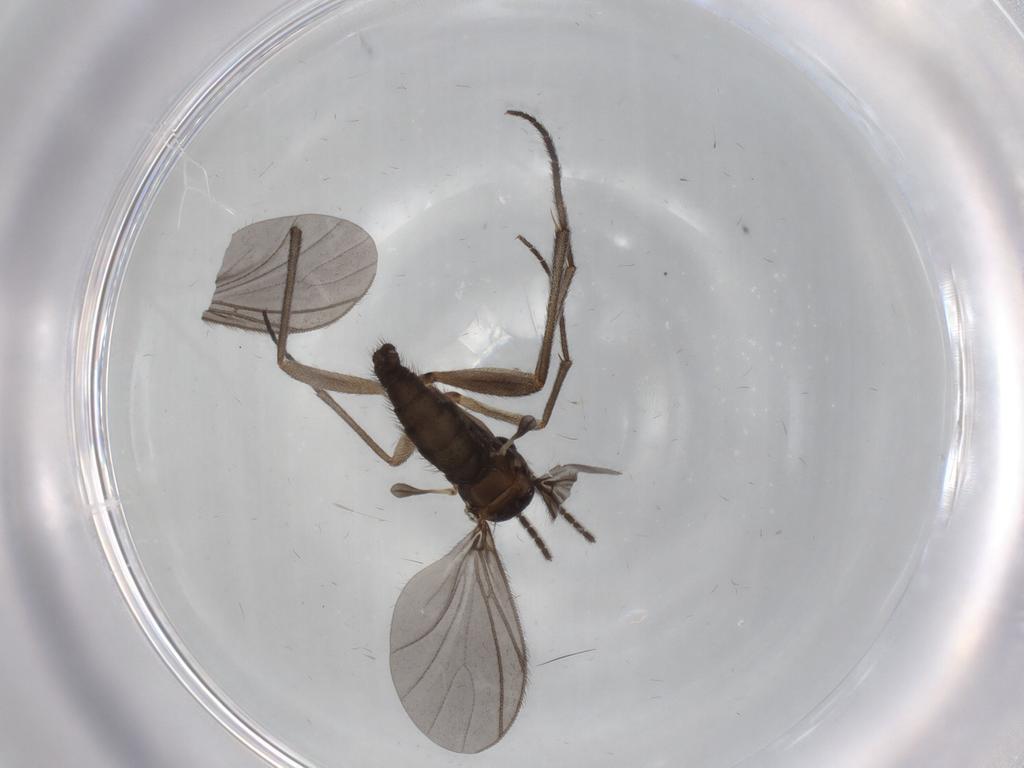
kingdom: Animalia
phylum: Arthropoda
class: Insecta
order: Diptera
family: Sciaridae
